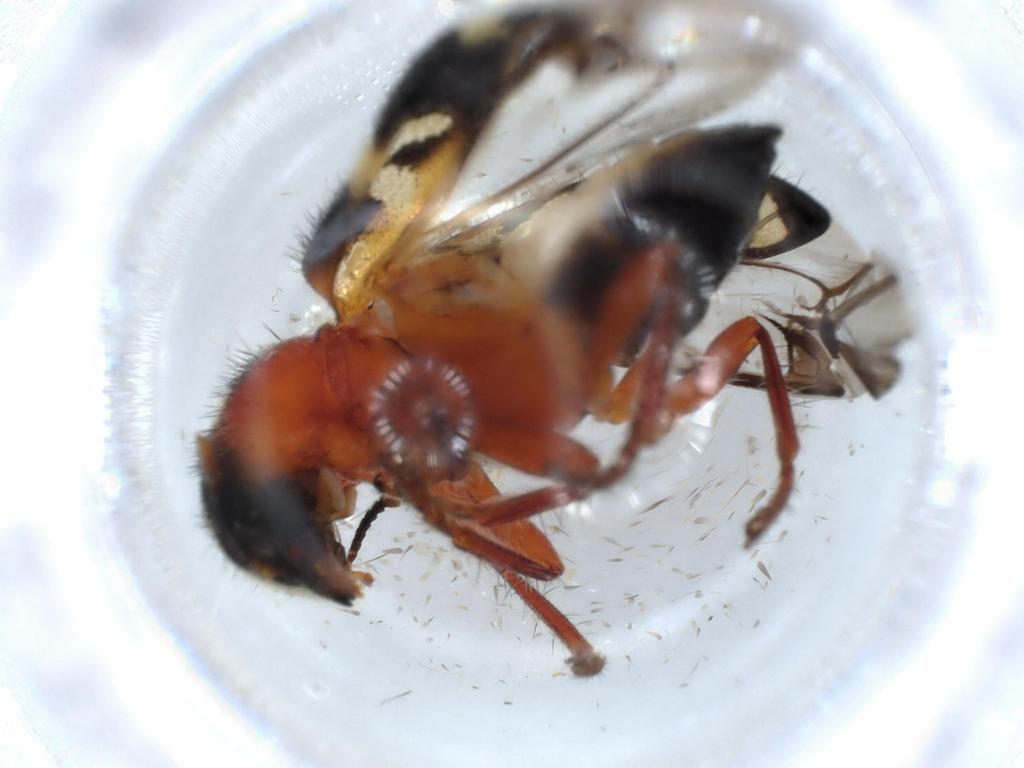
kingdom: Animalia
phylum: Arthropoda
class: Insecta
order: Coleoptera
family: Cleridae
